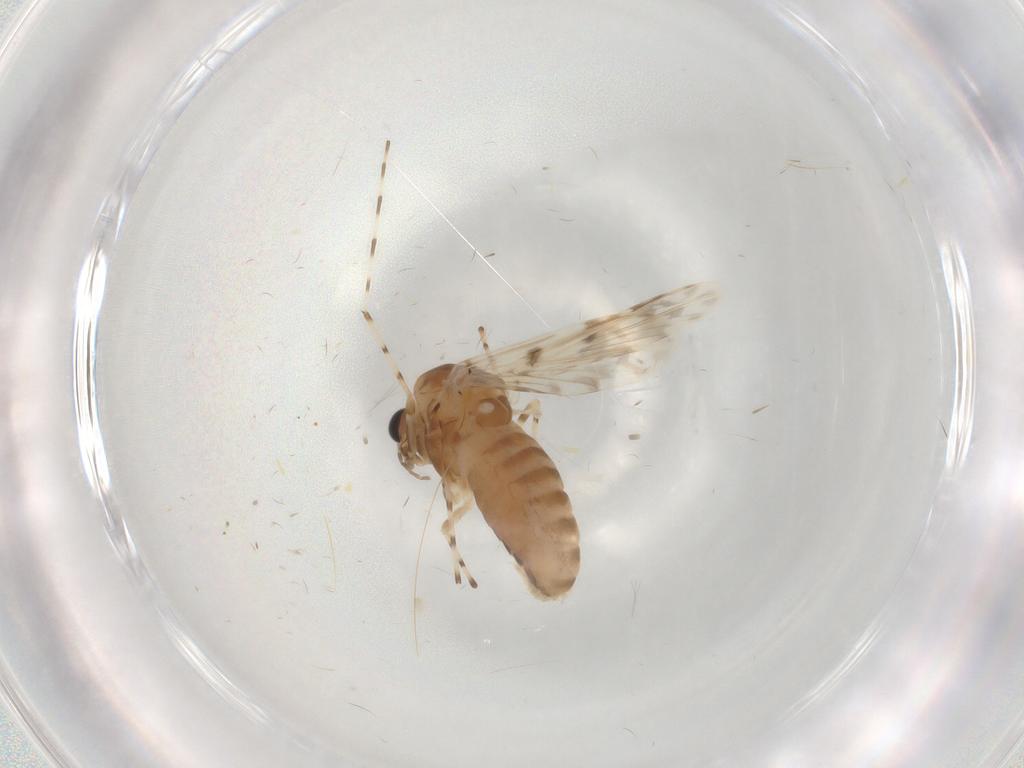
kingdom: Animalia
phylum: Arthropoda
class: Insecta
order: Diptera
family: Chironomidae
